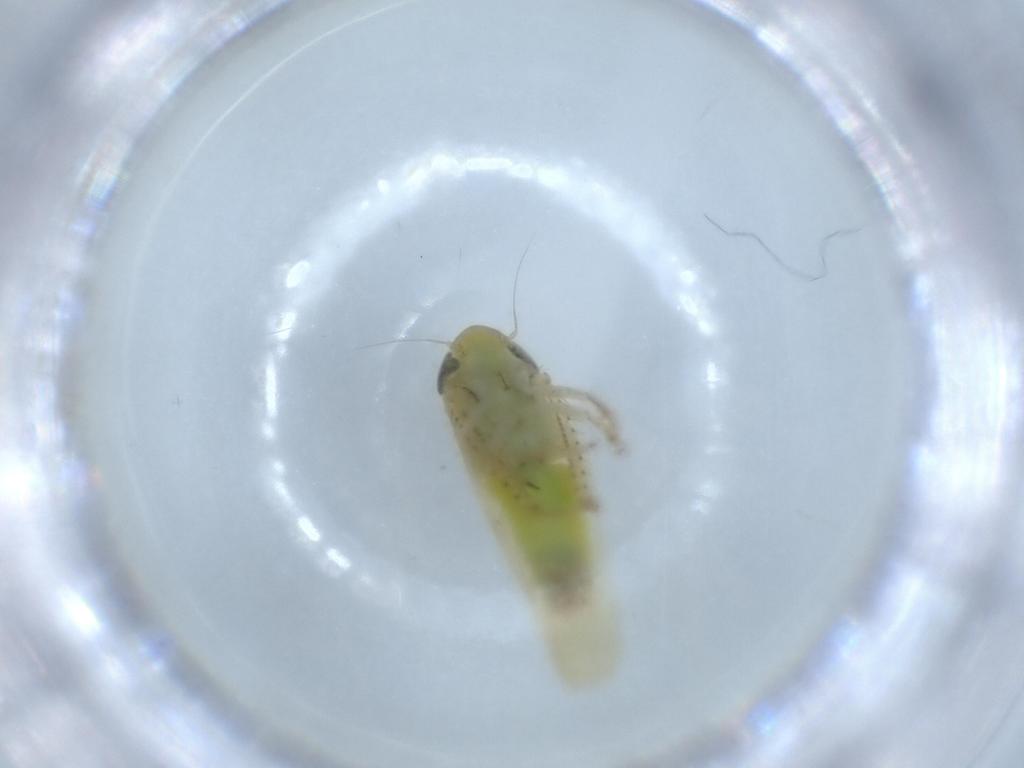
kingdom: Animalia
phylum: Arthropoda
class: Insecta
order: Hemiptera
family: Cicadellidae
